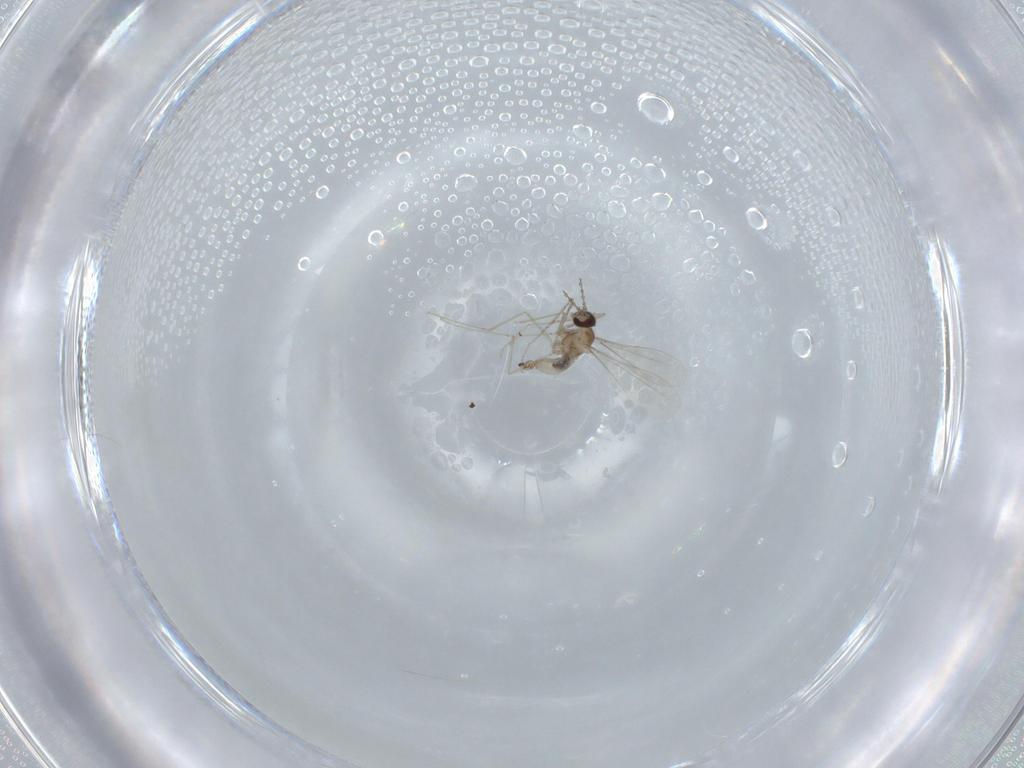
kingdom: Animalia
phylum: Arthropoda
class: Insecta
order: Diptera
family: Cecidomyiidae
